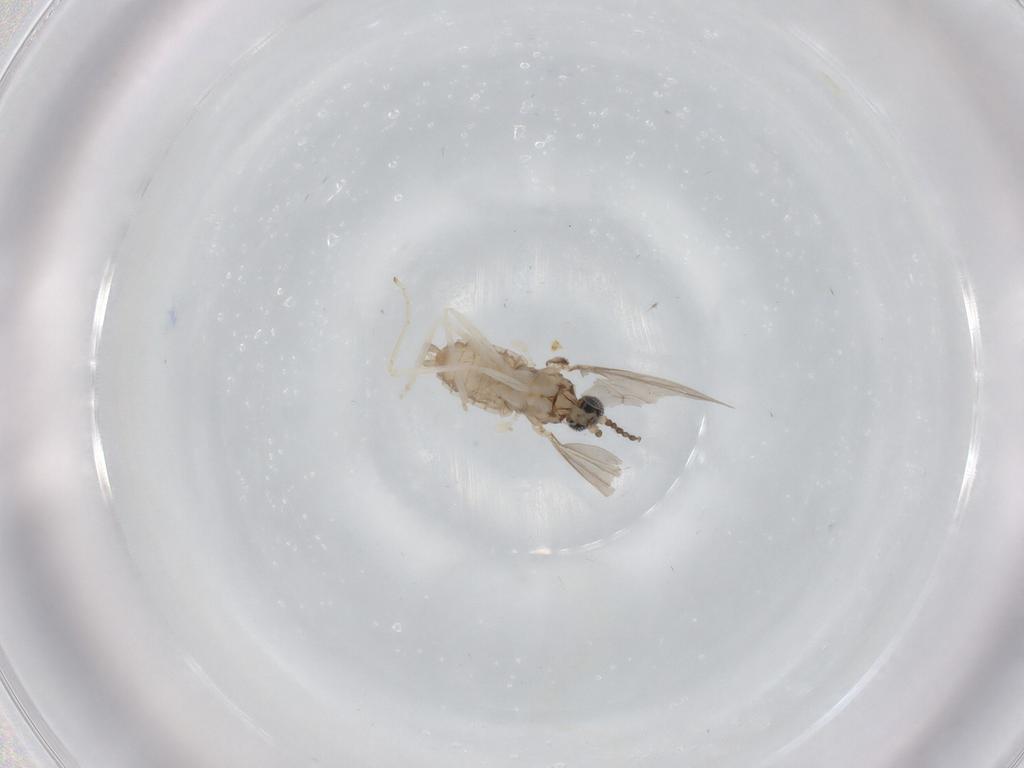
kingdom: Animalia
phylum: Arthropoda
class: Insecta
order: Diptera
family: Cecidomyiidae
